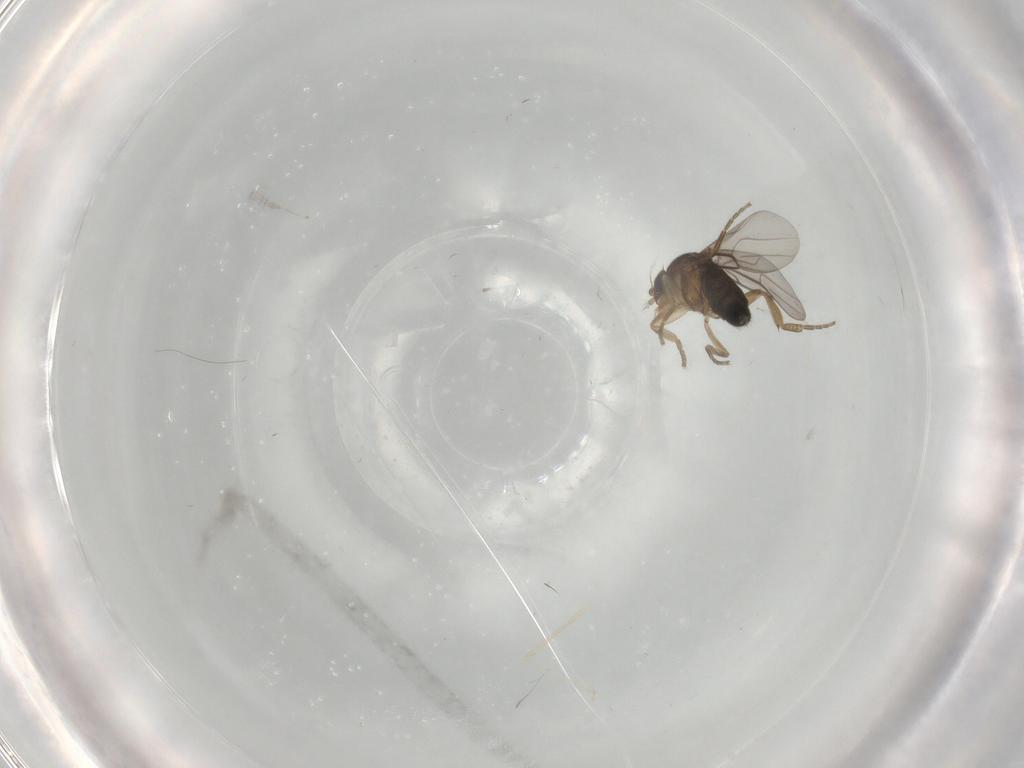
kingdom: Animalia
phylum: Arthropoda
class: Insecta
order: Diptera
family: Phoridae
